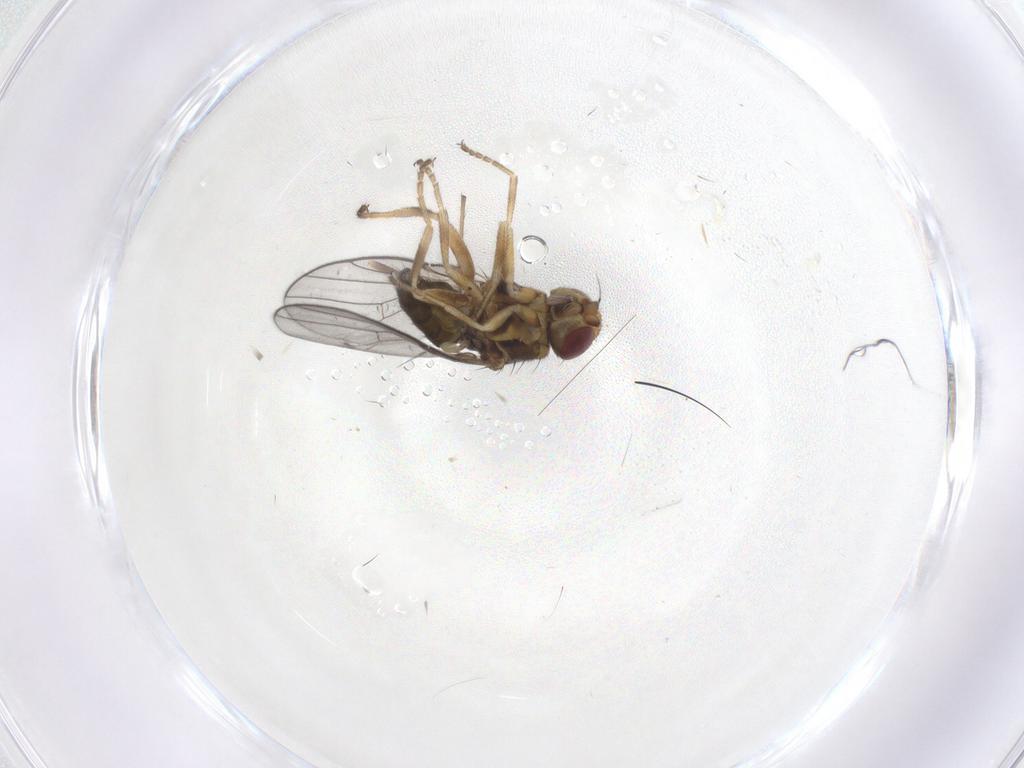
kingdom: Animalia
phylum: Arthropoda
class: Insecta
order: Diptera
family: Chloropidae
